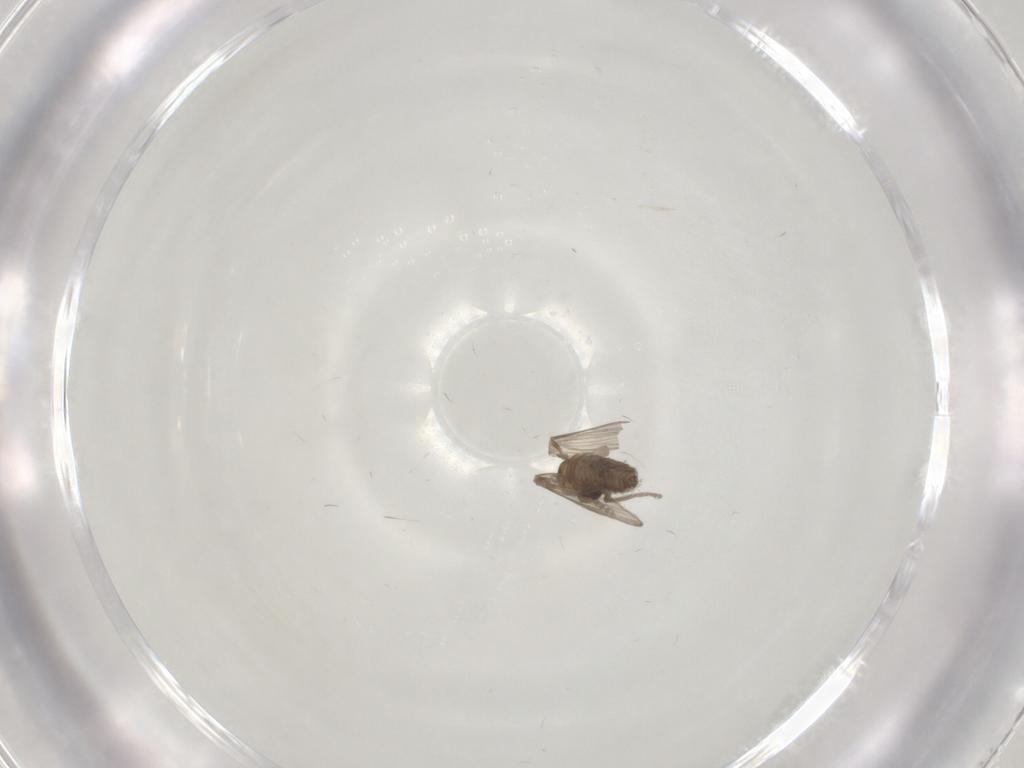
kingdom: Animalia
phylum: Arthropoda
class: Insecta
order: Diptera
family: Psychodidae
